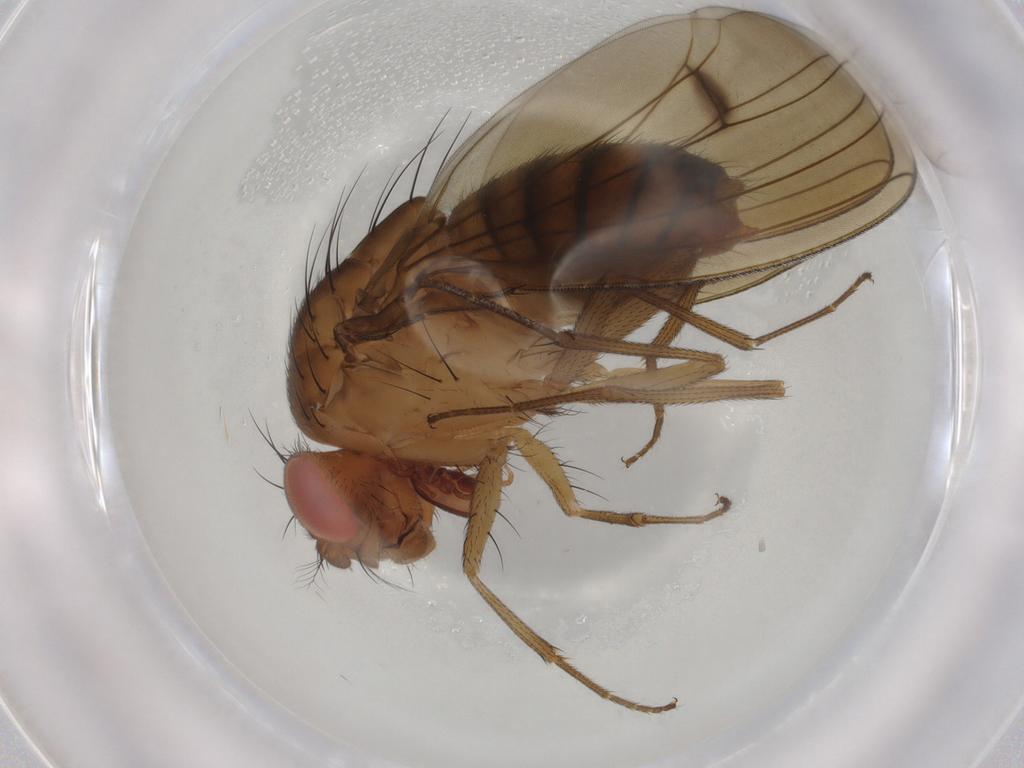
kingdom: Animalia
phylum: Arthropoda
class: Insecta
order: Diptera
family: Drosophilidae
